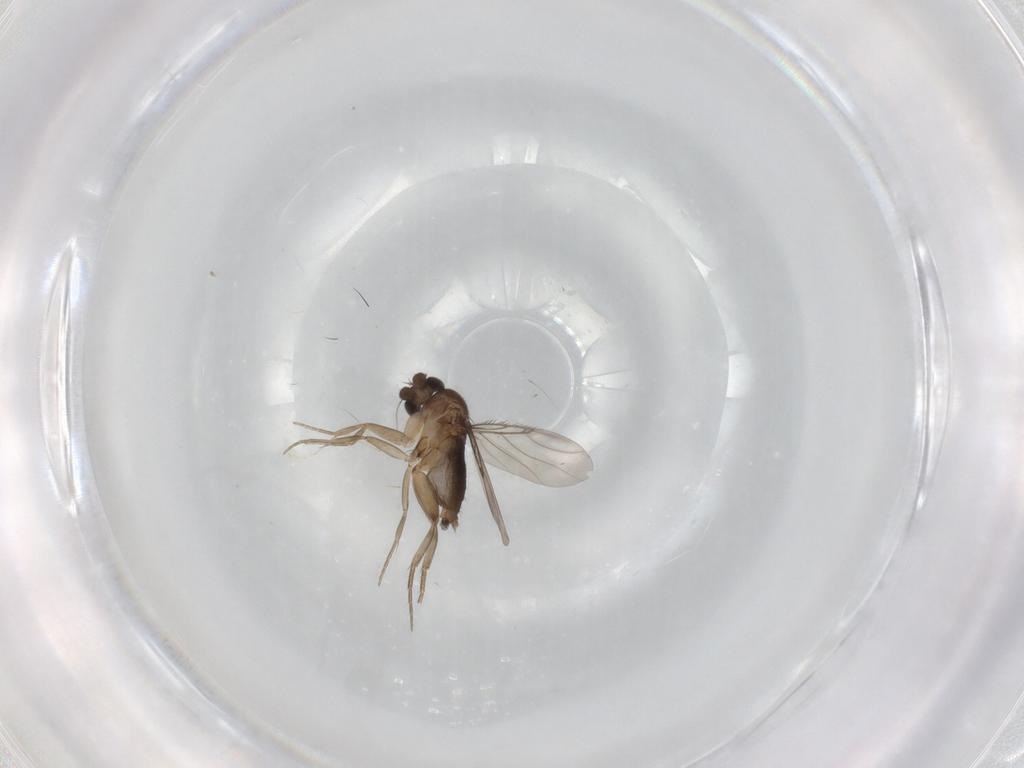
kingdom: Animalia
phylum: Arthropoda
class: Insecta
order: Diptera
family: Phoridae
